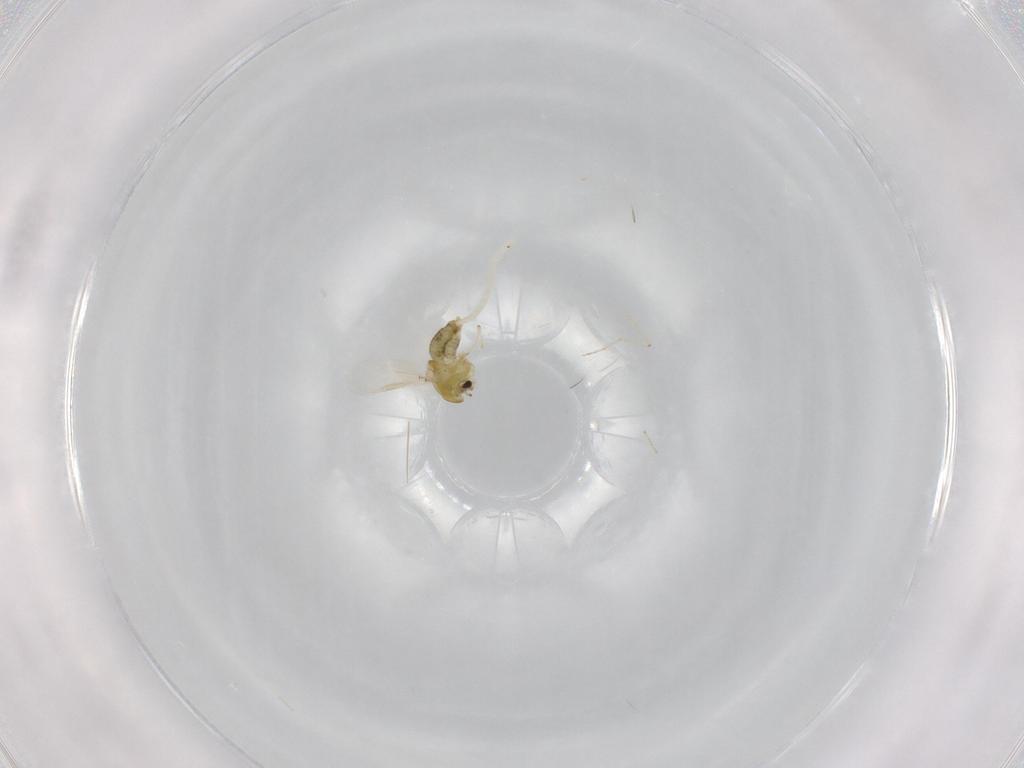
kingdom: Animalia
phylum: Arthropoda
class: Insecta
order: Diptera
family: Chironomidae
